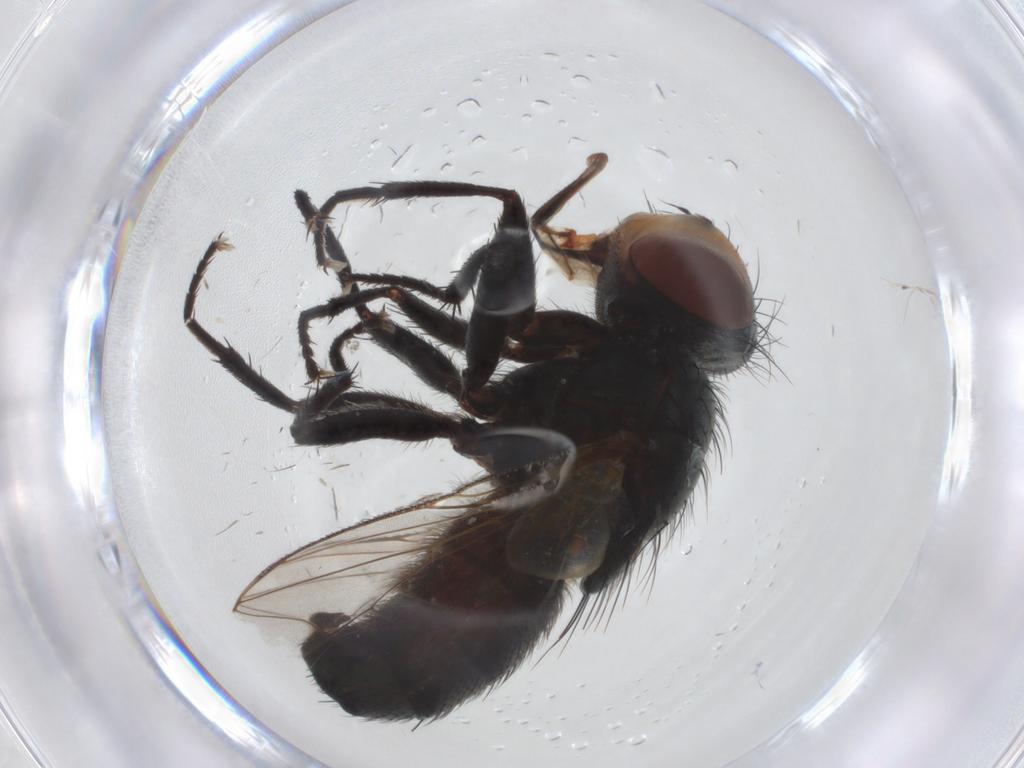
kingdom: Animalia
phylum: Arthropoda
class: Insecta
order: Diptera
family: Sarcophagidae
